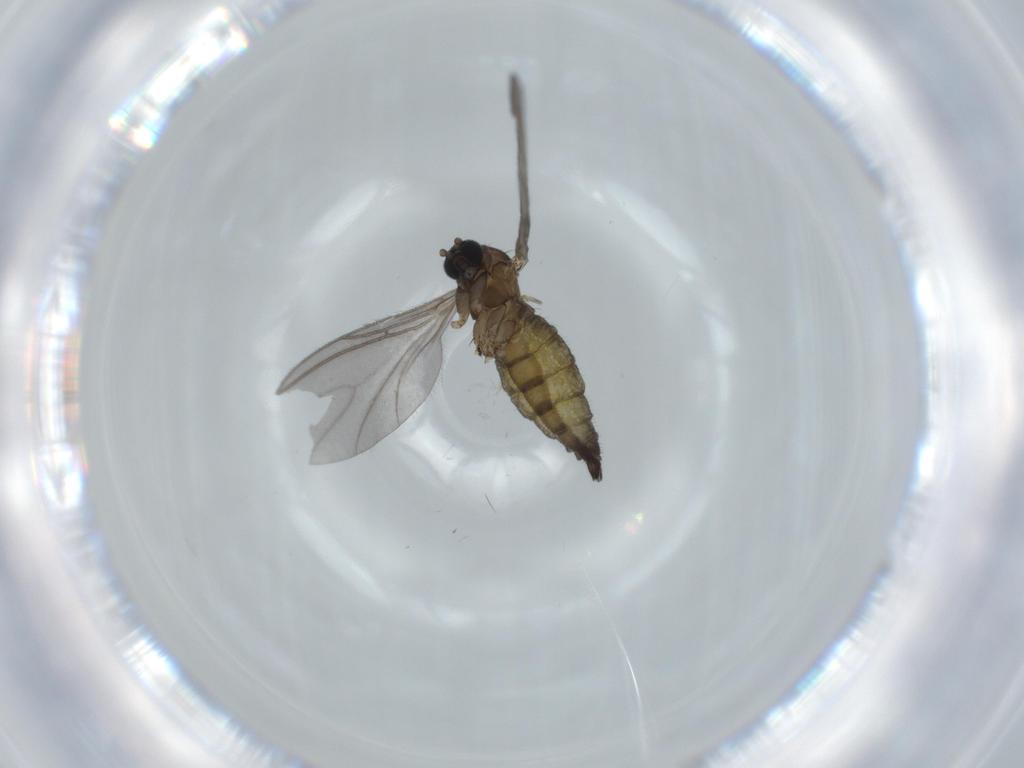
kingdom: Animalia
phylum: Arthropoda
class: Insecta
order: Diptera
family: Sciaridae
